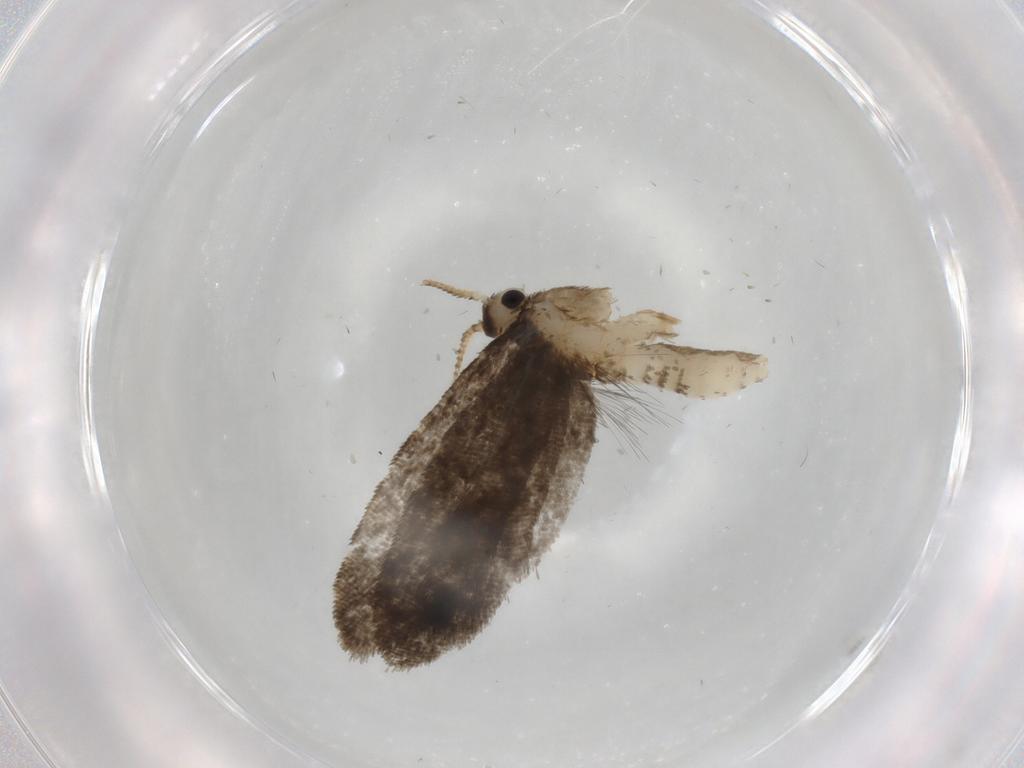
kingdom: Animalia
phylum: Arthropoda
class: Insecta
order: Lepidoptera
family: Psychidae
